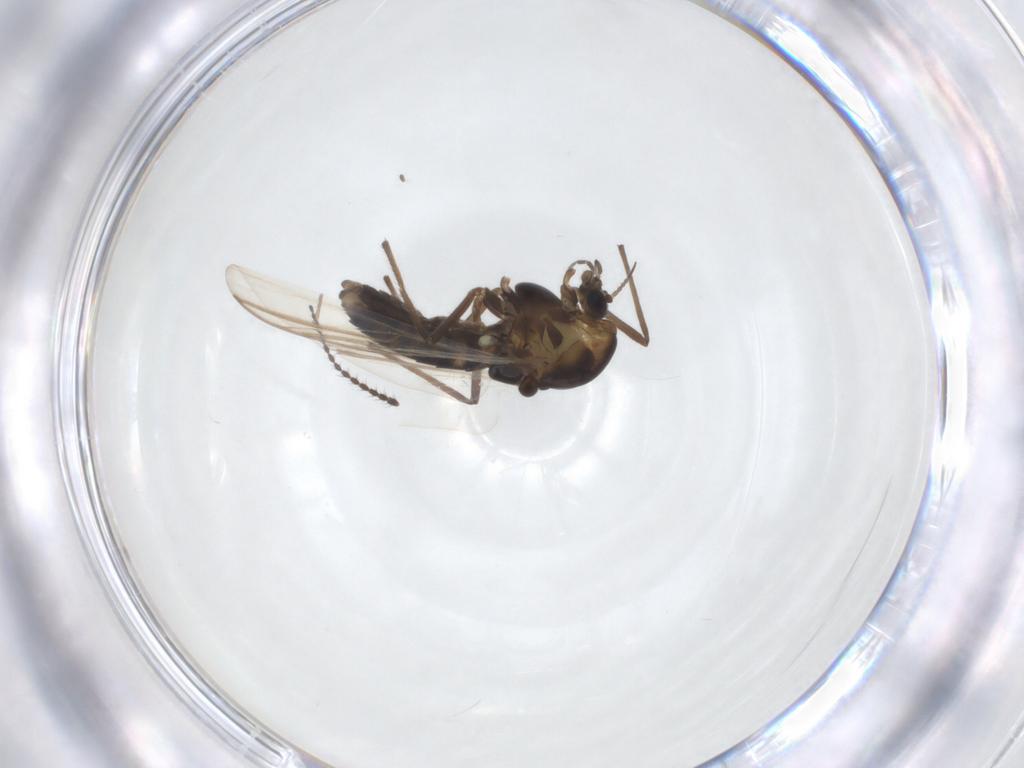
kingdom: Animalia
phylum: Arthropoda
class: Insecta
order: Diptera
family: Chironomidae
